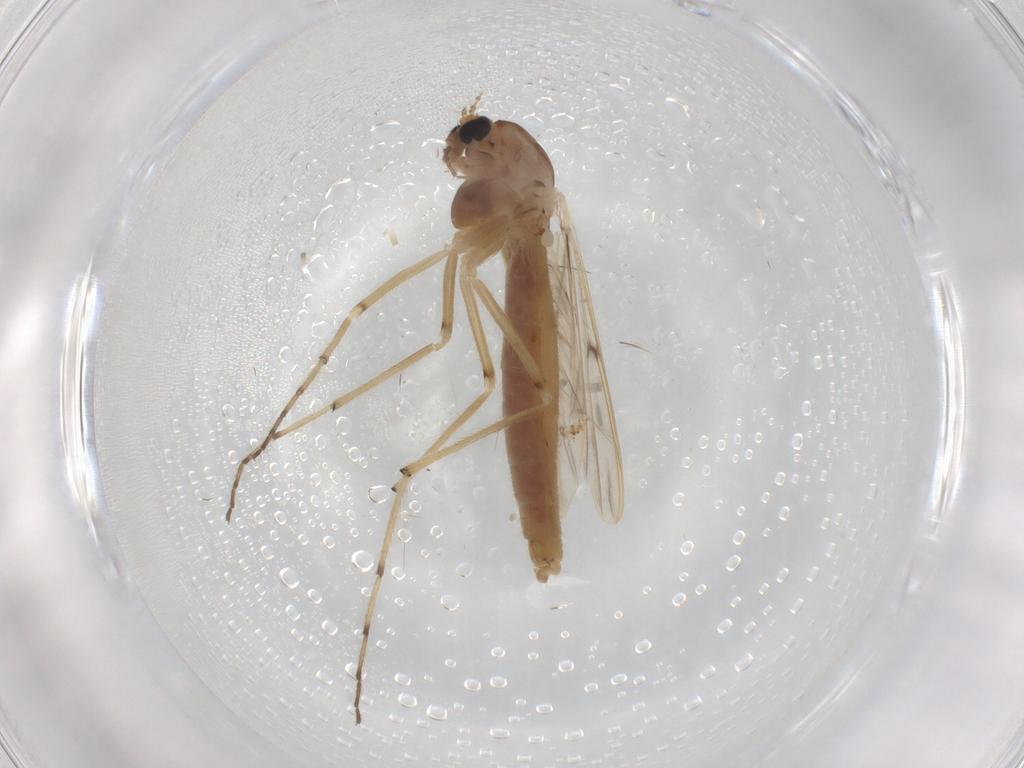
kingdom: Animalia
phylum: Arthropoda
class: Insecta
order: Diptera
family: Chironomidae
